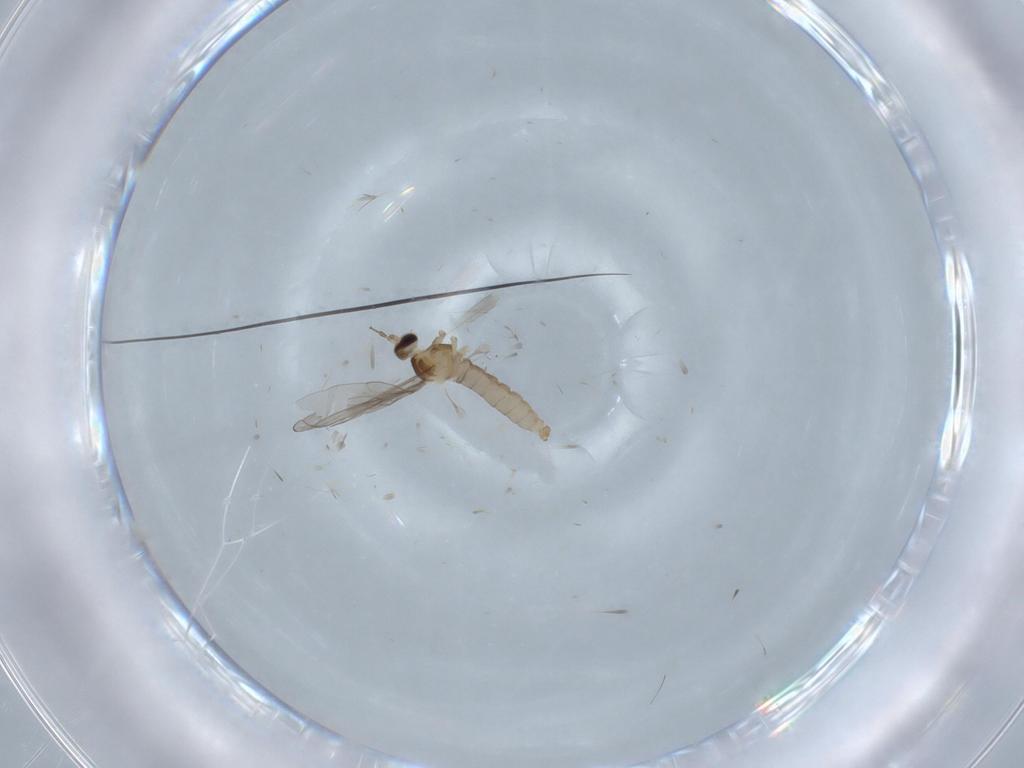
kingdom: Animalia
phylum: Arthropoda
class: Insecta
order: Diptera
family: Cecidomyiidae
